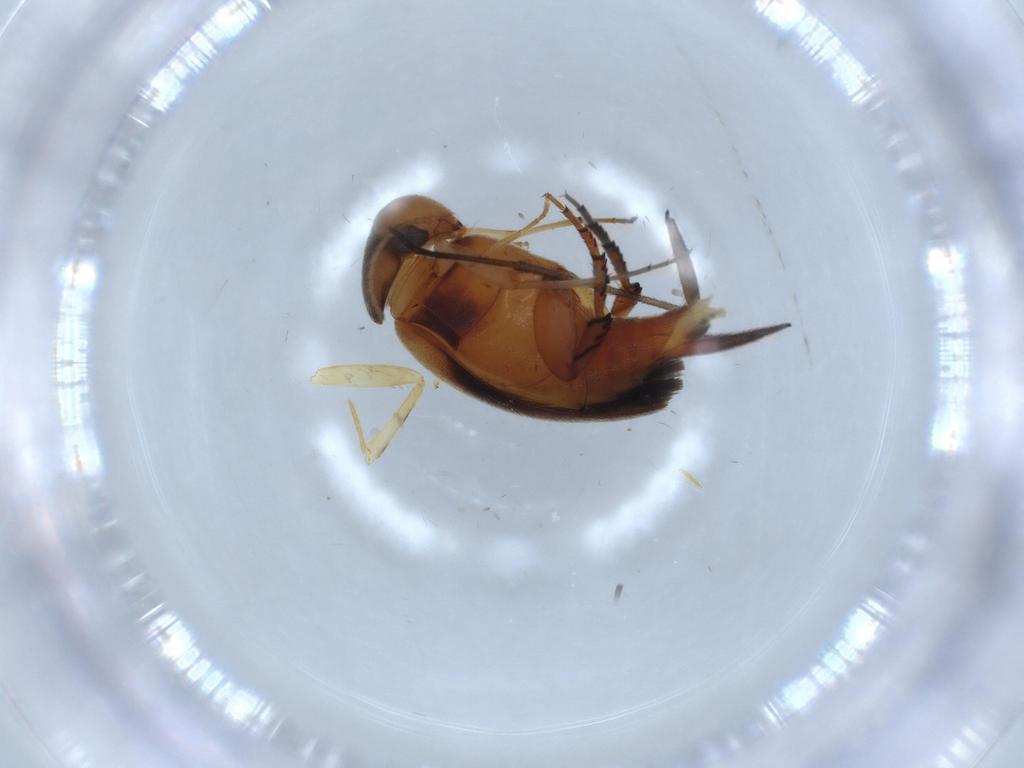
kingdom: Animalia
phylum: Arthropoda
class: Insecta
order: Coleoptera
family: Mordellidae
